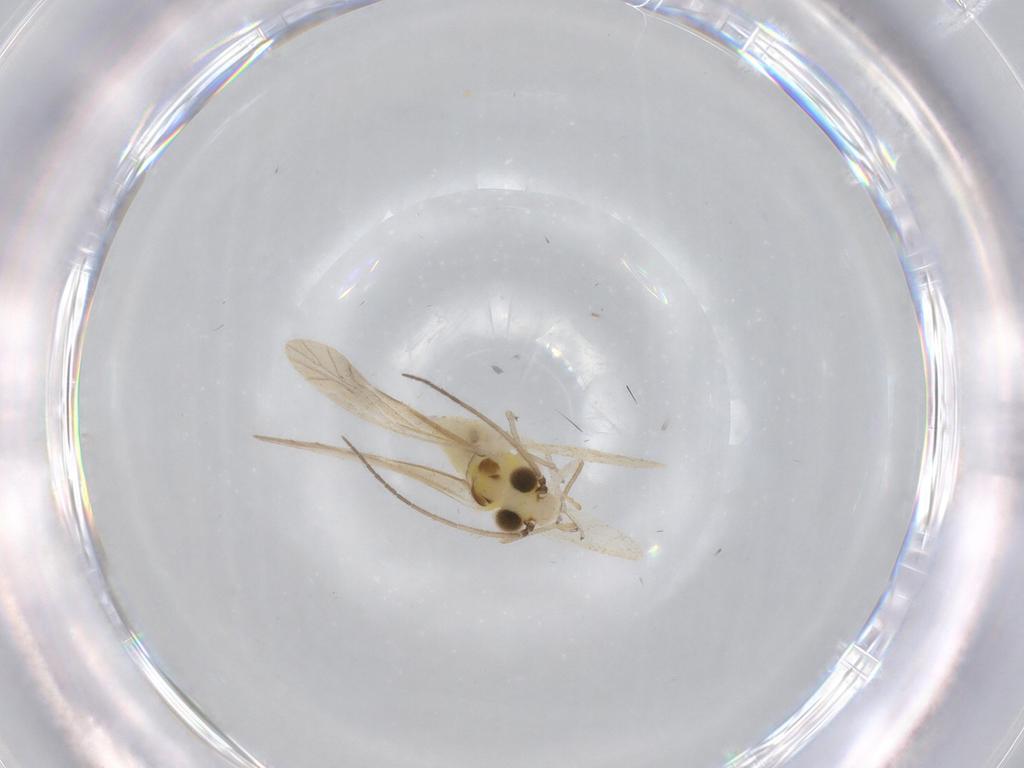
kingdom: Animalia
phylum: Arthropoda
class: Insecta
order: Psocodea
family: Caeciliusidae
